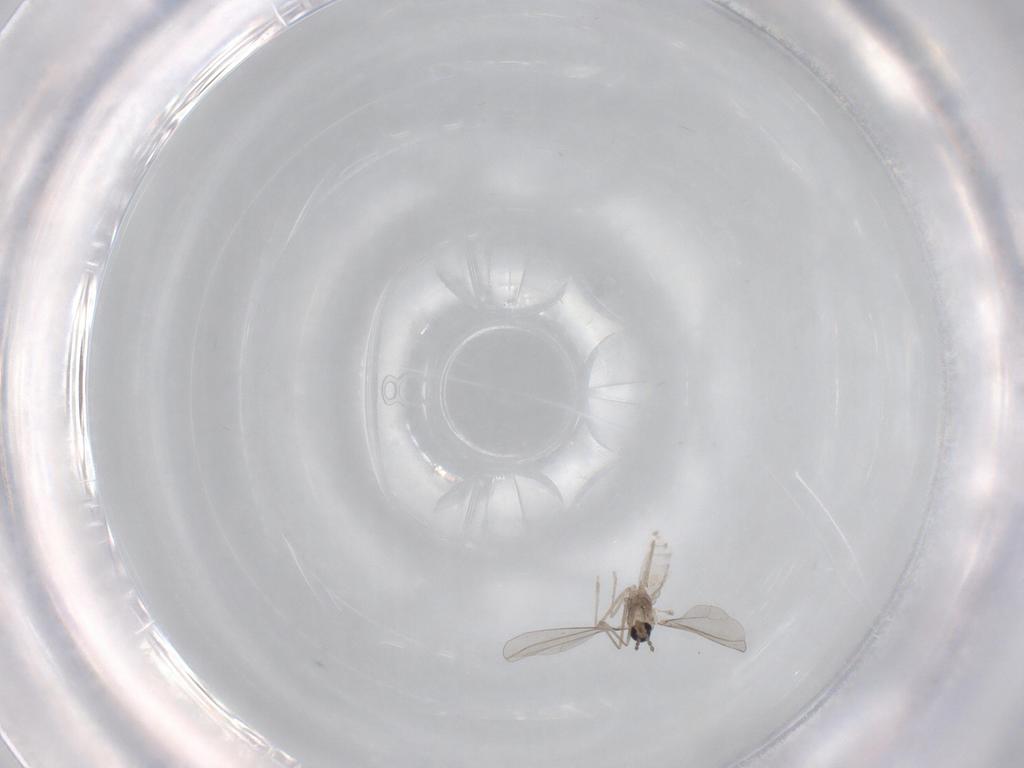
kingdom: Animalia
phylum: Arthropoda
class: Insecta
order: Diptera
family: Cecidomyiidae
